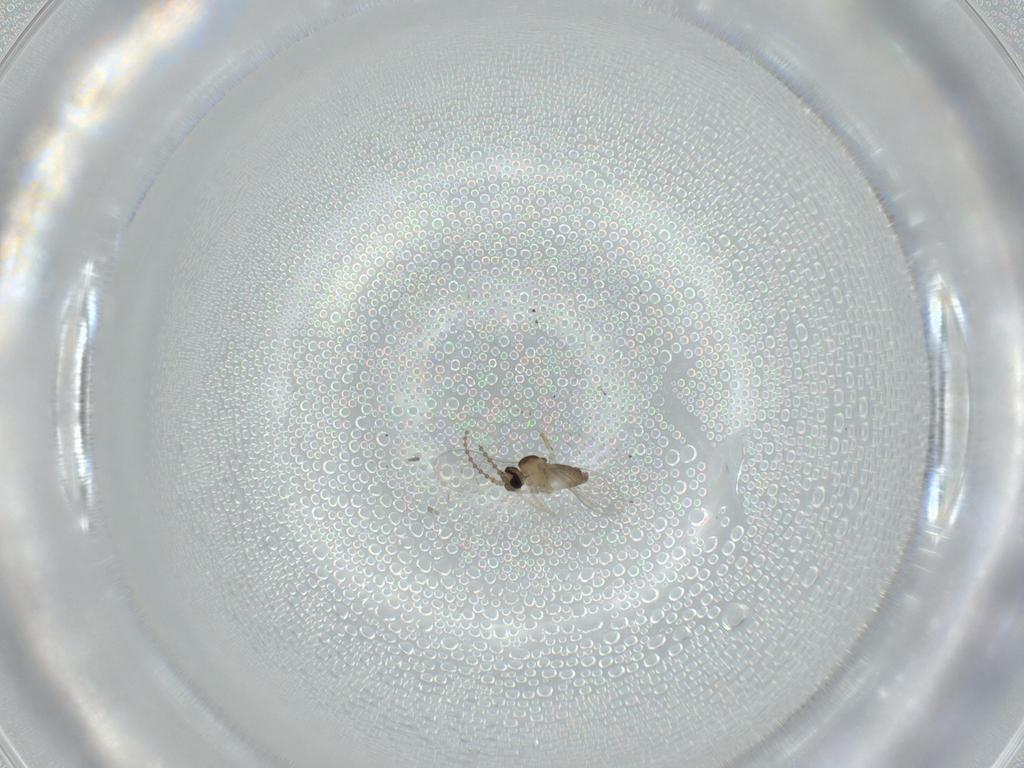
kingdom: Animalia
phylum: Arthropoda
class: Insecta
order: Diptera
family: Cecidomyiidae
